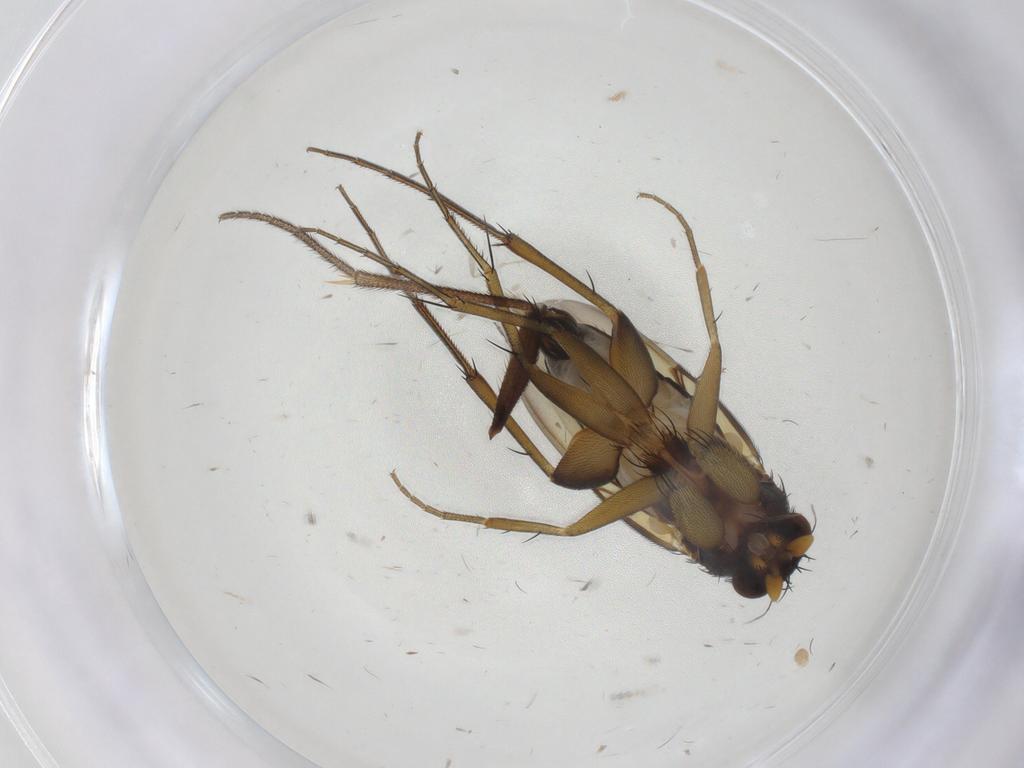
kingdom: Animalia
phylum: Arthropoda
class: Insecta
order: Diptera
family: Phoridae
